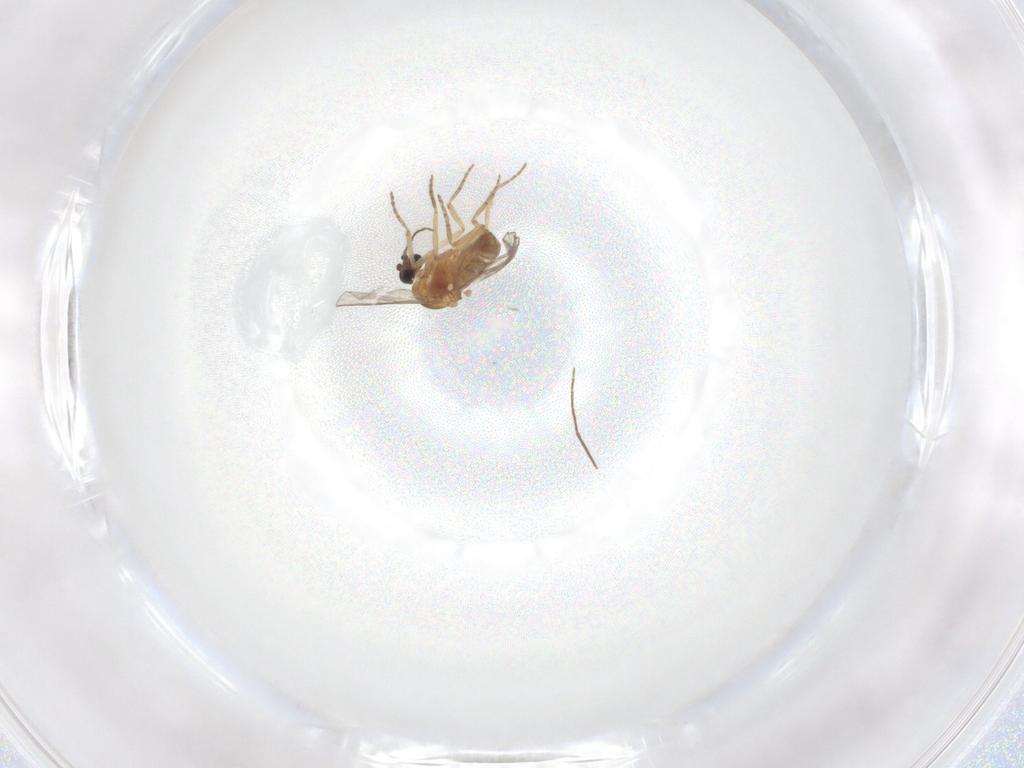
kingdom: Animalia
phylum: Arthropoda
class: Insecta
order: Diptera
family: Chironomidae
